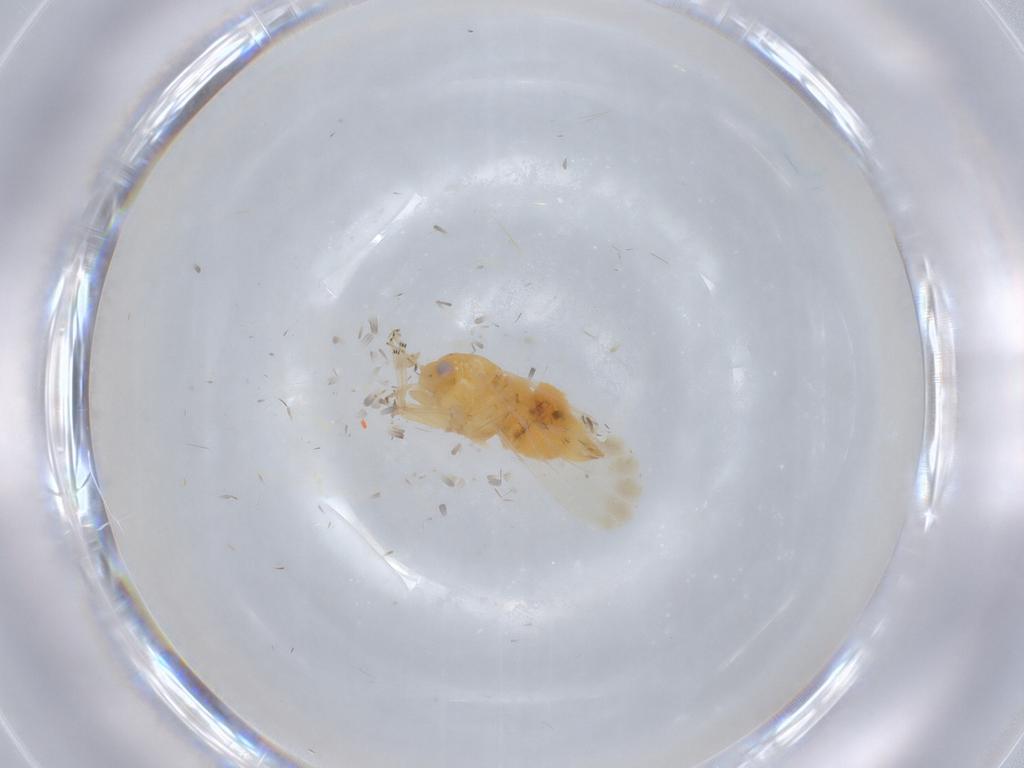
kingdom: Animalia
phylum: Arthropoda
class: Insecta
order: Hemiptera
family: Psyllidae
